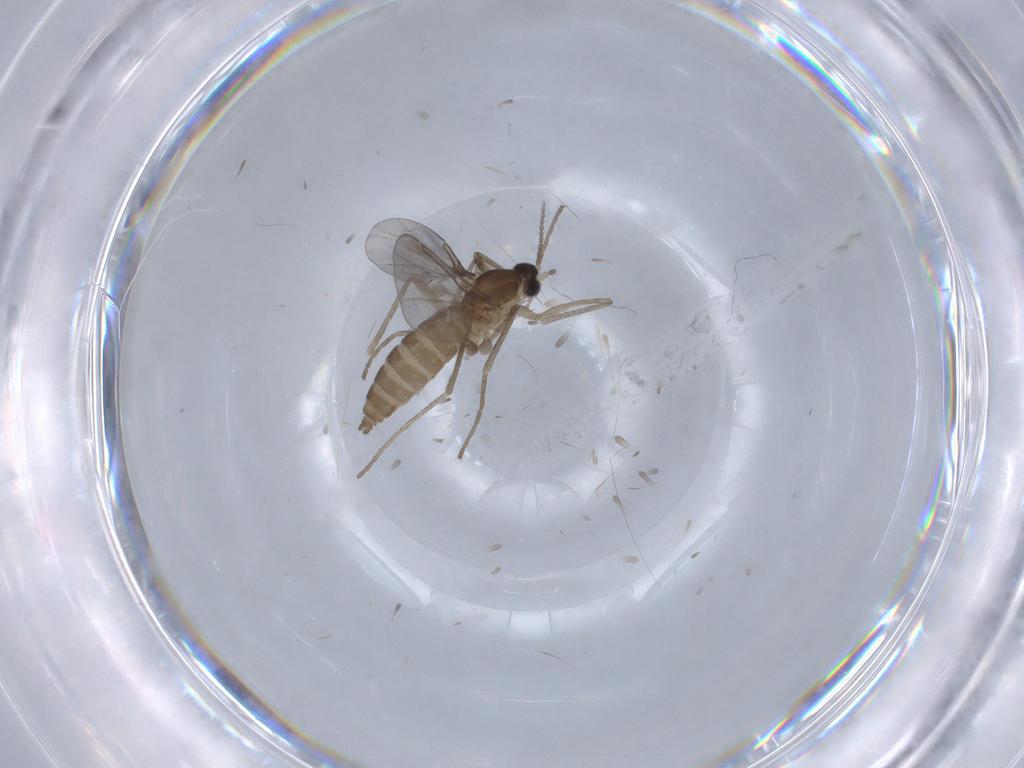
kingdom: Animalia
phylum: Arthropoda
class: Insecta
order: Diptera
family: Cecidomyiidae
